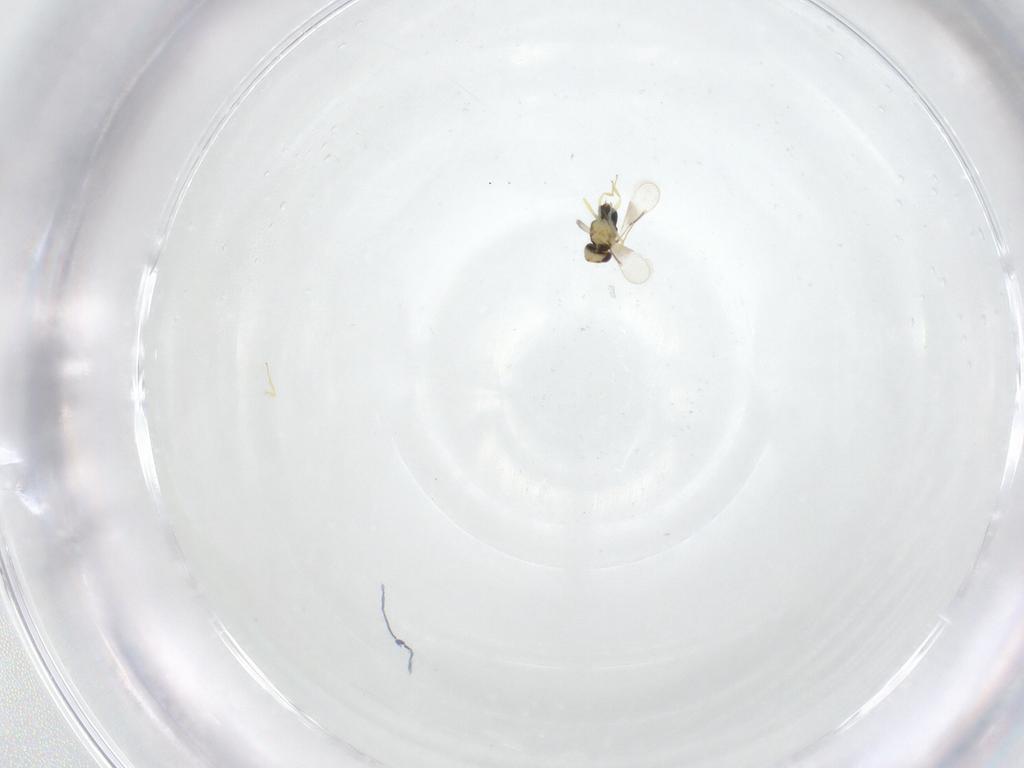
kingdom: Animalia
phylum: Arthropoda
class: Insecta
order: Hymenoptera
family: Aphelinidae
